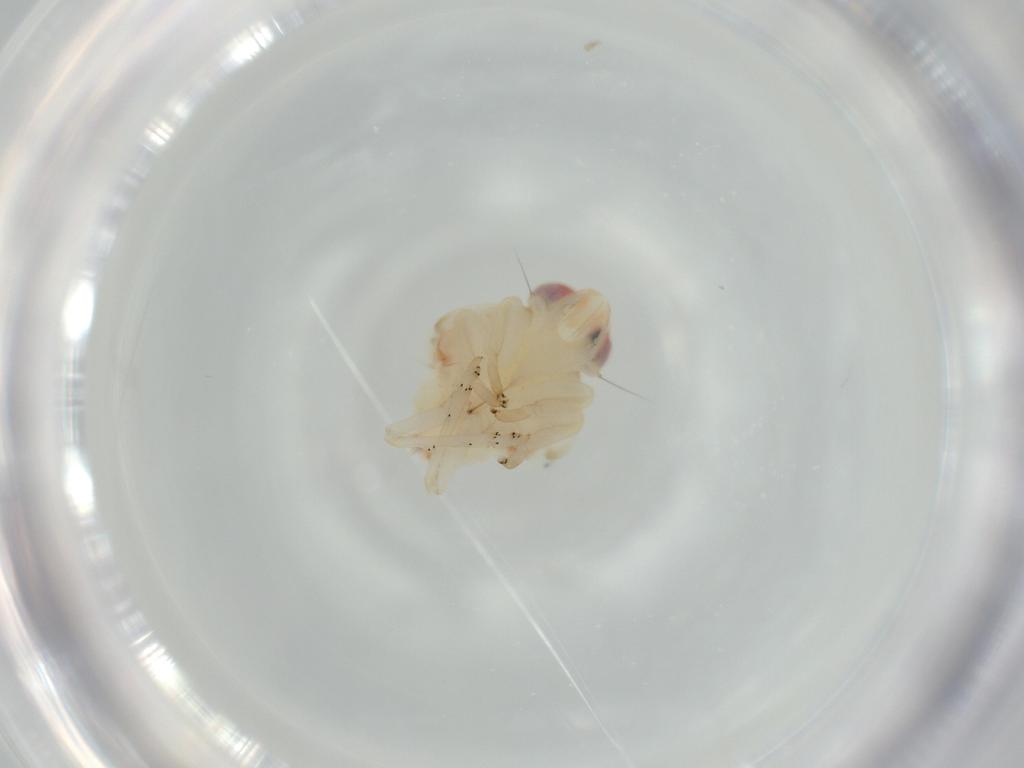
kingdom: Animalia
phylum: Arthropoda
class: Insecta
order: Hemiptera
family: Nogodinidae
